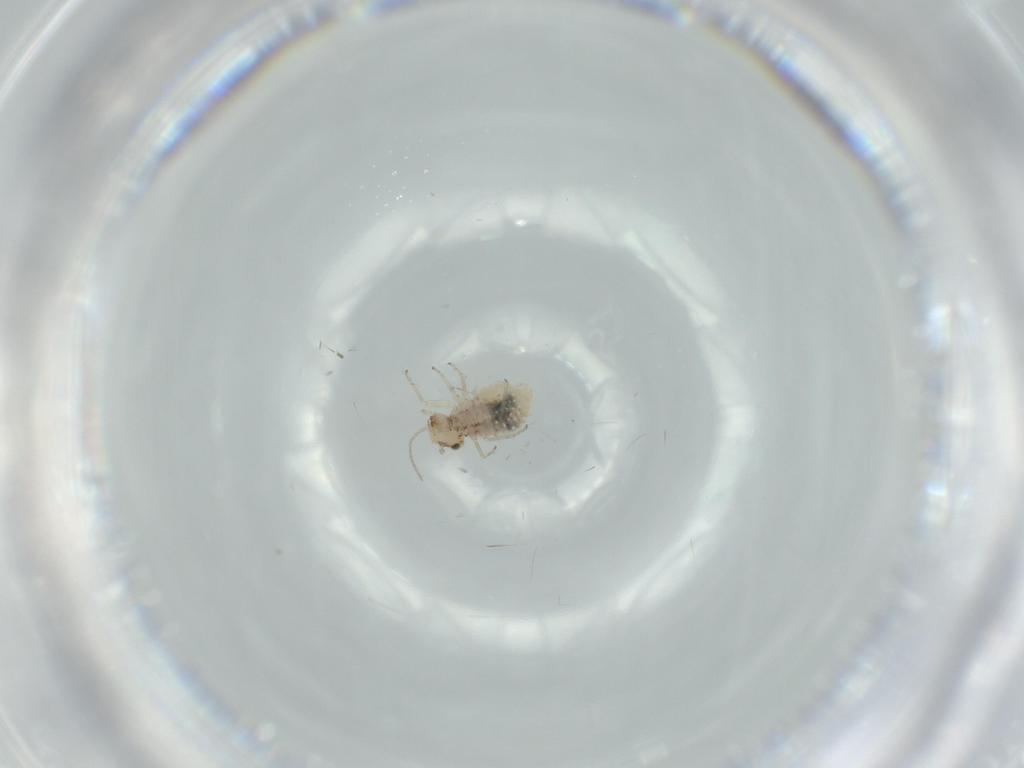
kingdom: Animalia
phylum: Arthropoda
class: Insecta
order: Psocodea
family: Lachesillidae
